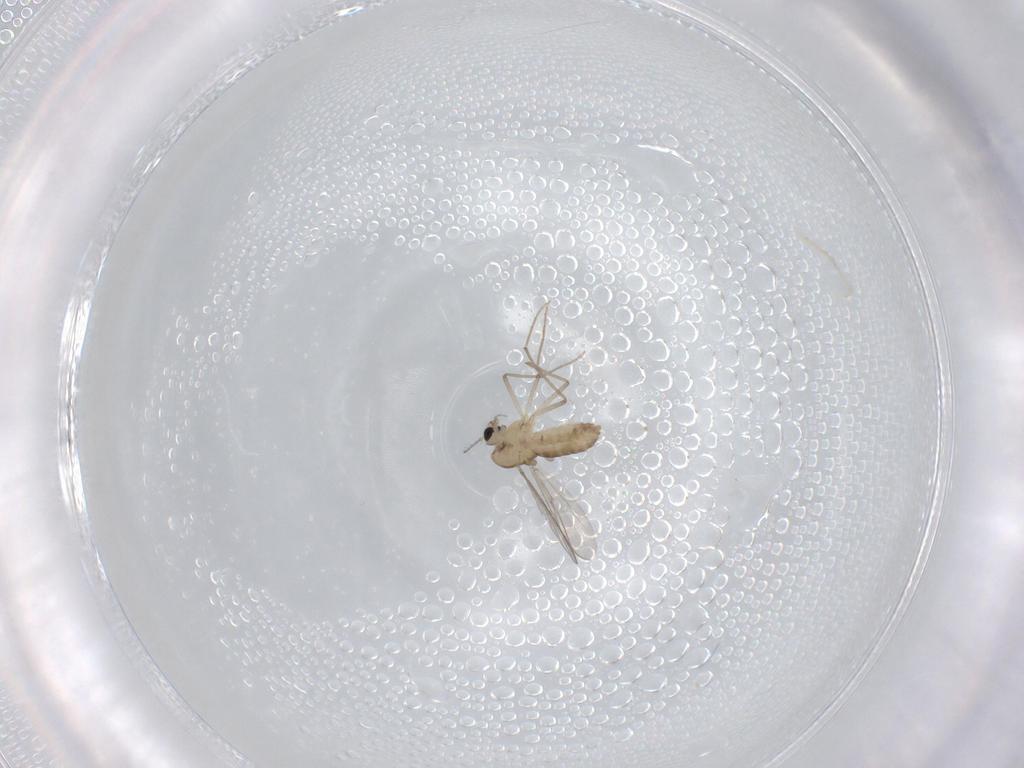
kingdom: Animalia
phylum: Arthropoda
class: Insecta
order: Diptera
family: Chironomidae
